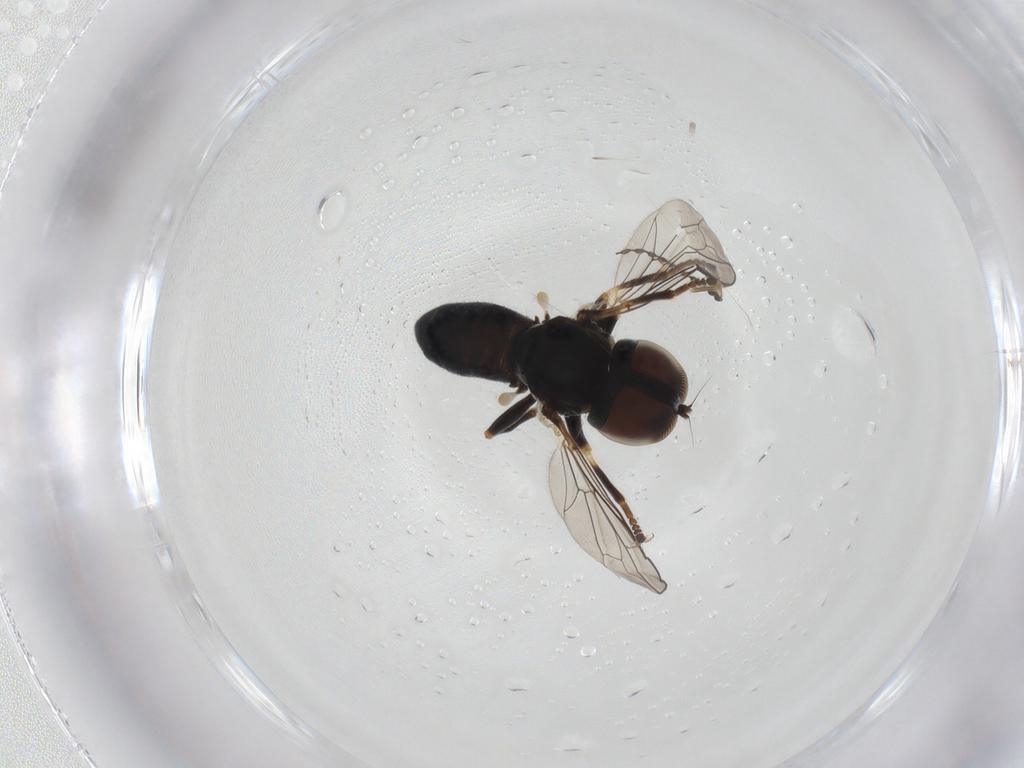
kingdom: Animalia
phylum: Arthropoda
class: Insecta
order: Diptera
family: Pipunculidae
